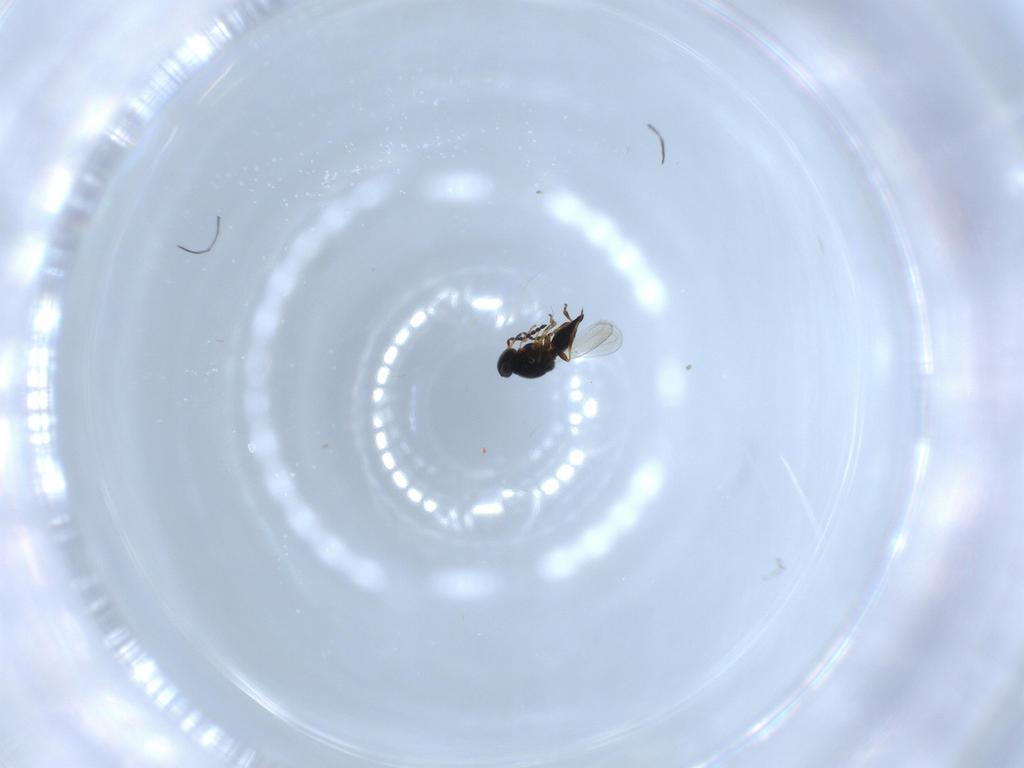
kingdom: Animalia
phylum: Arthropoda
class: Insecta
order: Hymenoptera
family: Platygastridae
